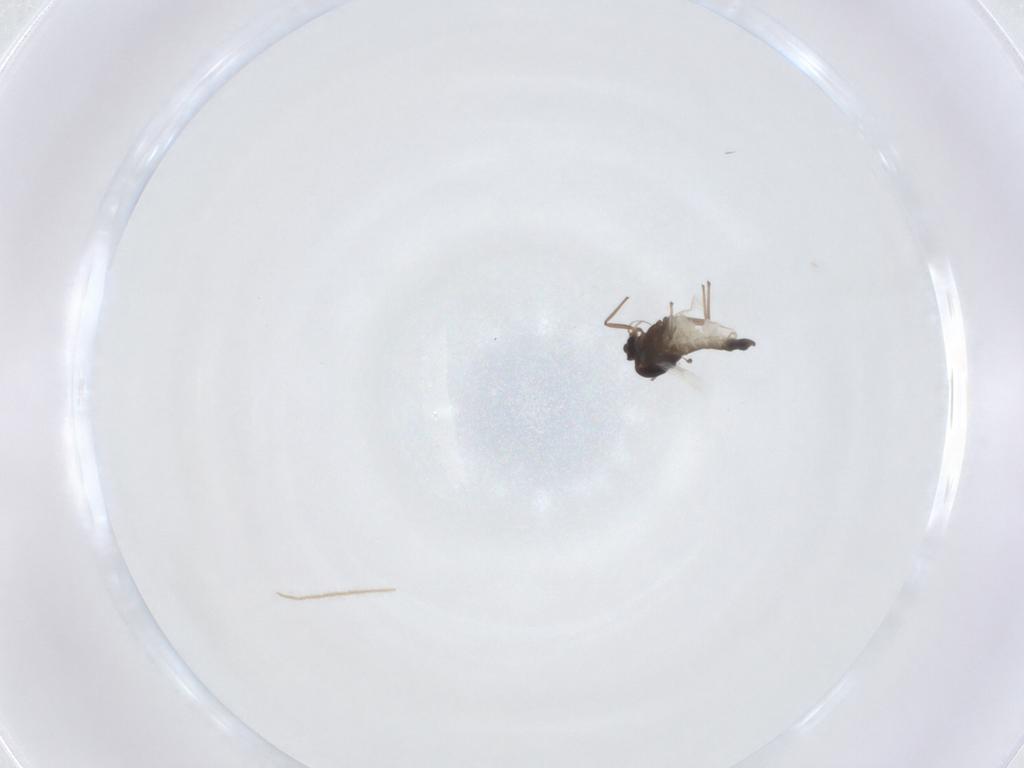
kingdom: Animalia
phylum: Arthropoda
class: Insecta
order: Diptera
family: Chironomidae
